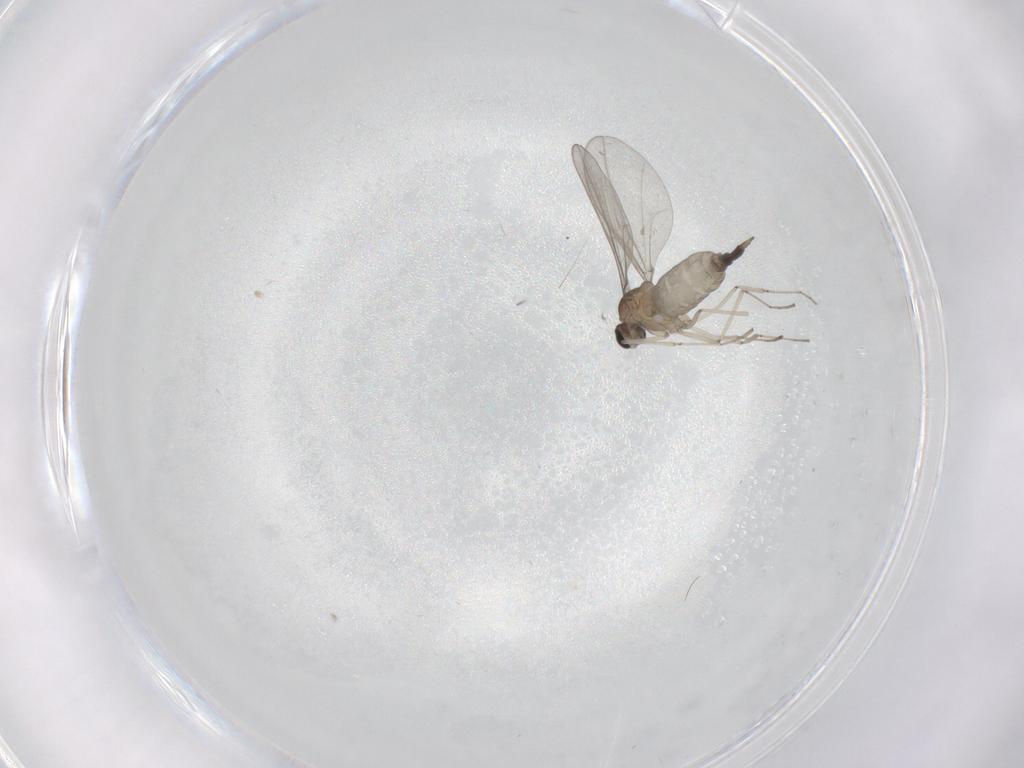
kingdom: Animalia
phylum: Arthropoda
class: Insecta
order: Diptera
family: Cecidomyiidae
